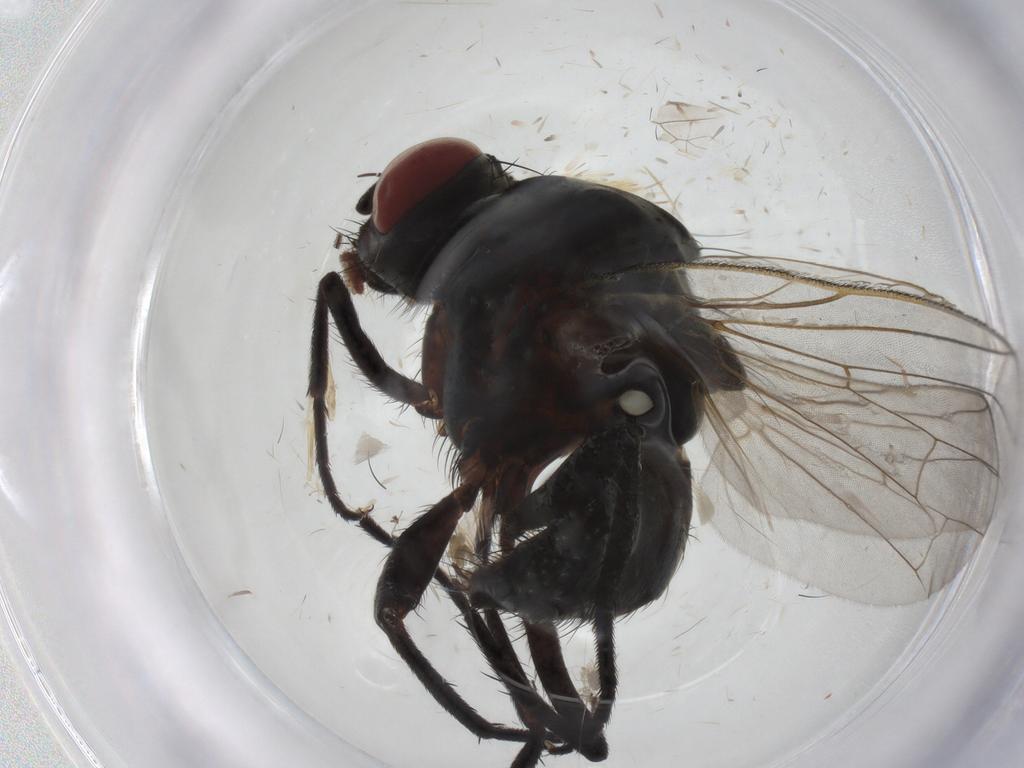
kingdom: Animalia
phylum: Arthropoda
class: Insecta
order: Diptera
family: Anthomyiidae
